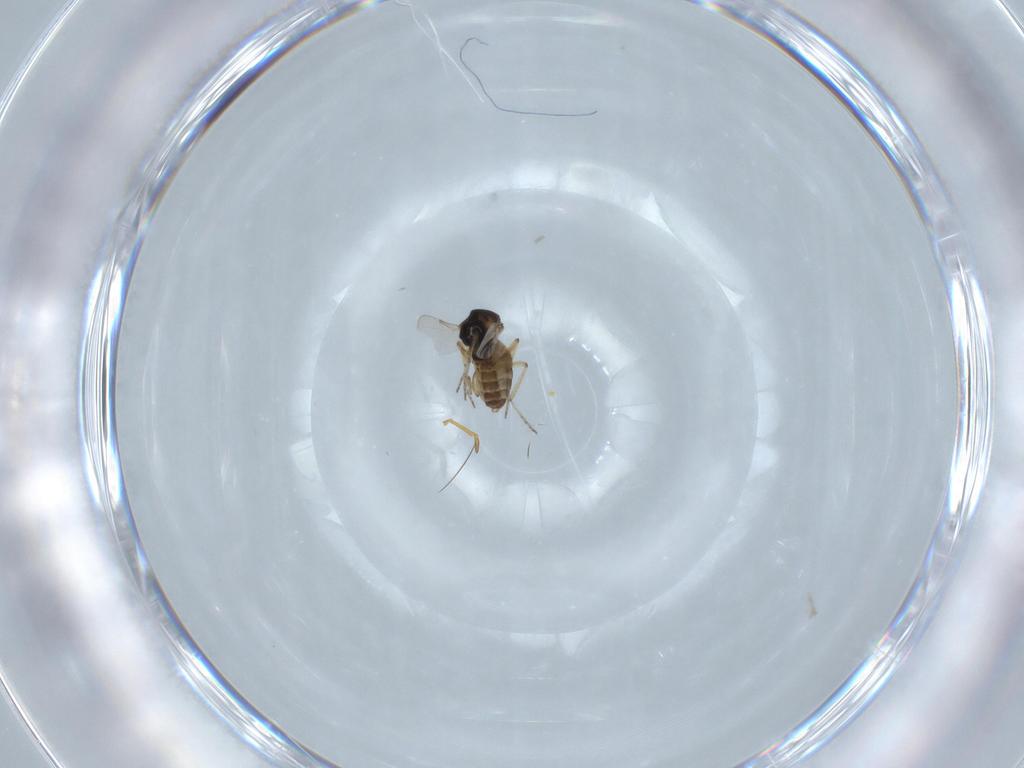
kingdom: Animalia
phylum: Arthropoda
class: Insecta
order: Diptera
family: Ceratopogonidae
